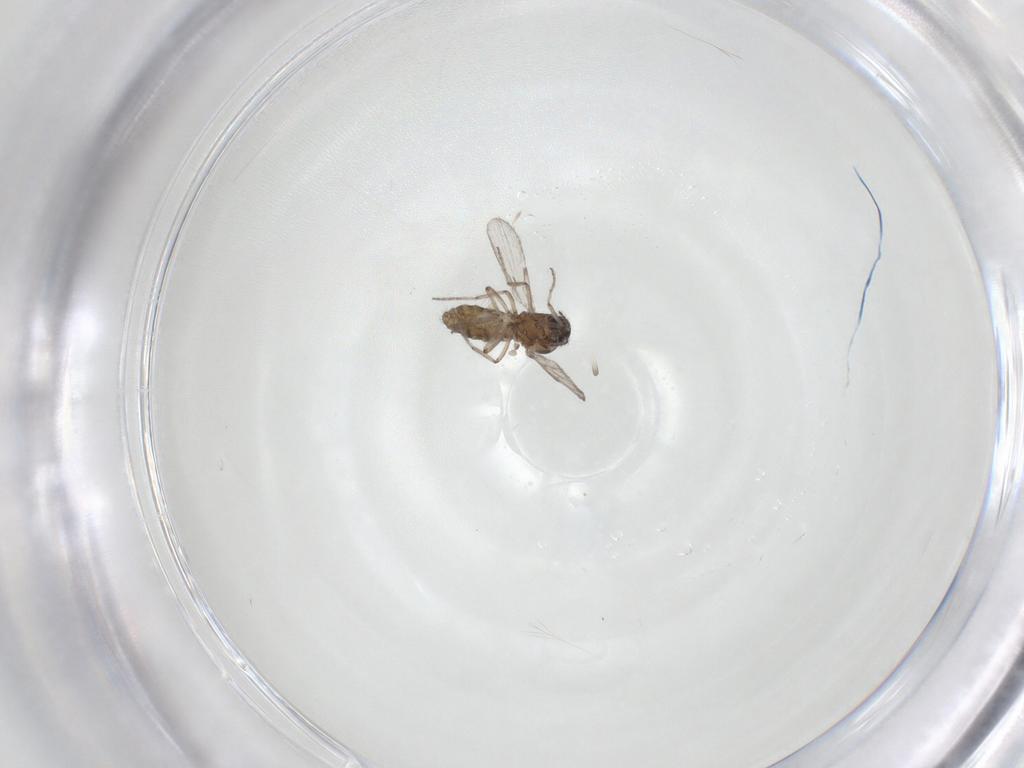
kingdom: Animalia
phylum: Arthropoda
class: Insecta
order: Diptera
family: Ceratopogonidae
